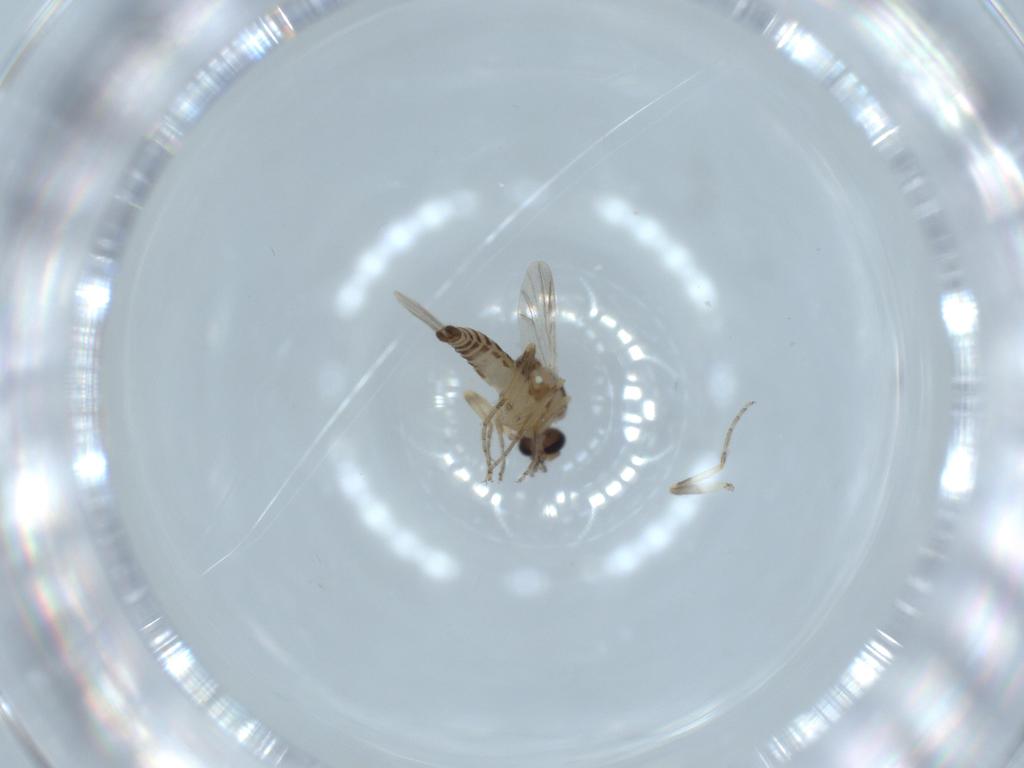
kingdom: Animalia
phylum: Arthropoda
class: Insecta
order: Diptera
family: Ceratopogonidae
